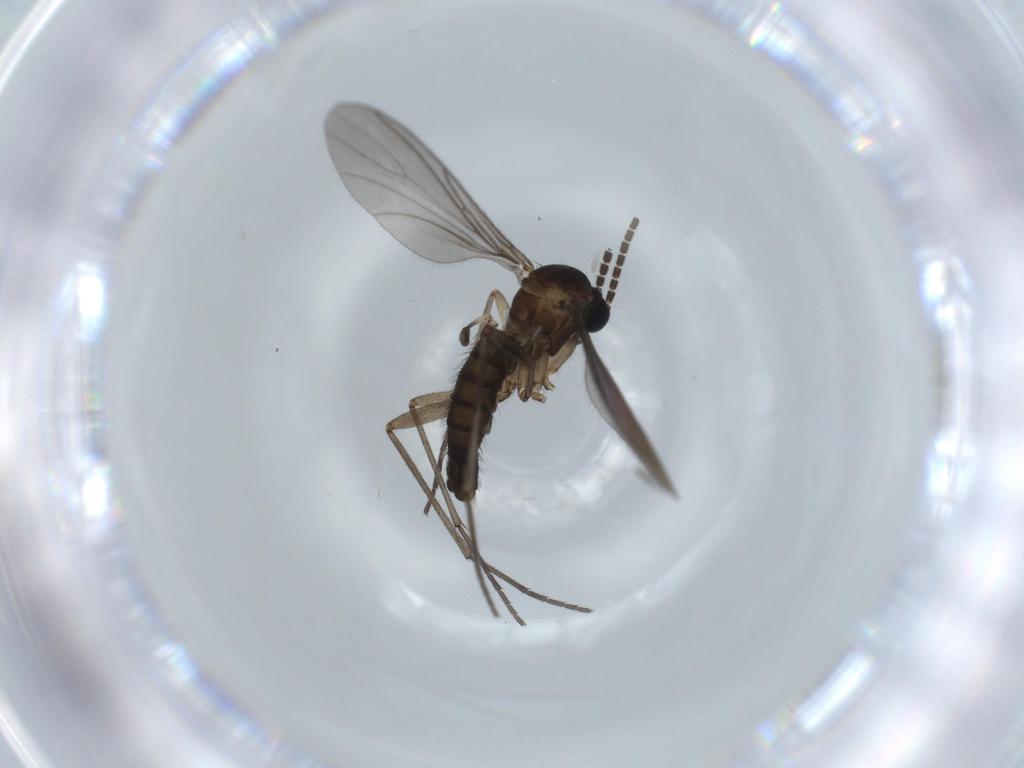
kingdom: Animalia
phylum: Arthropoda
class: Insecta
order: Diptera
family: Sciaridae
